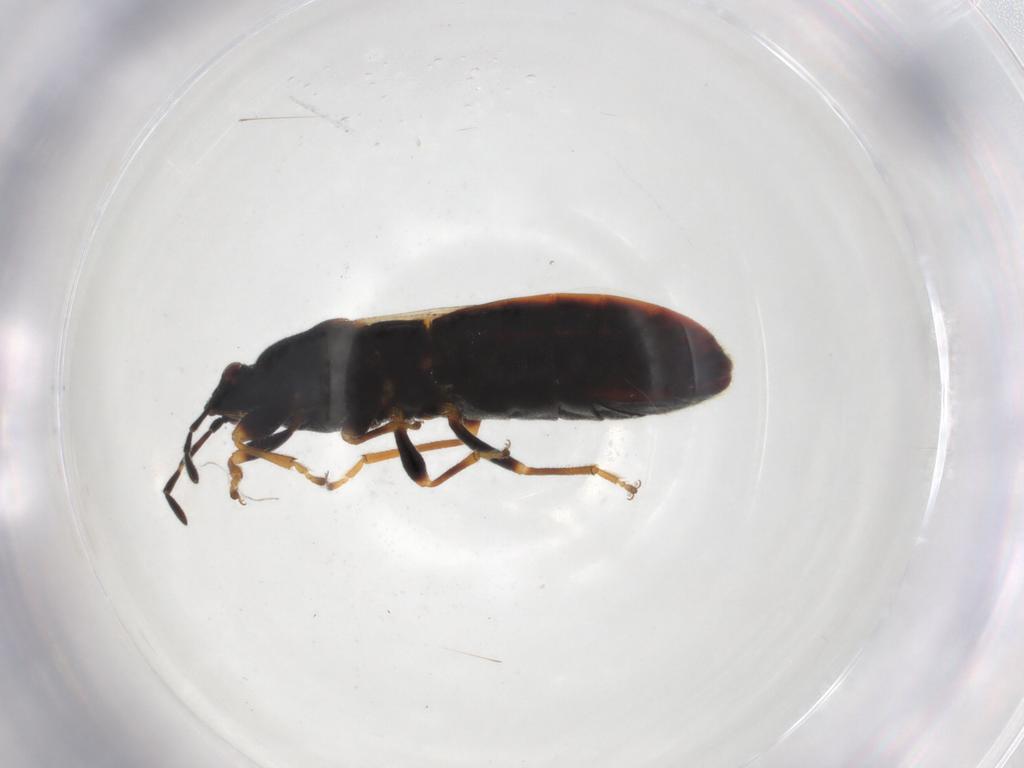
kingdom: Animalia
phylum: Arthropoda
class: Insecta
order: Hemiptera
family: Blissidae
